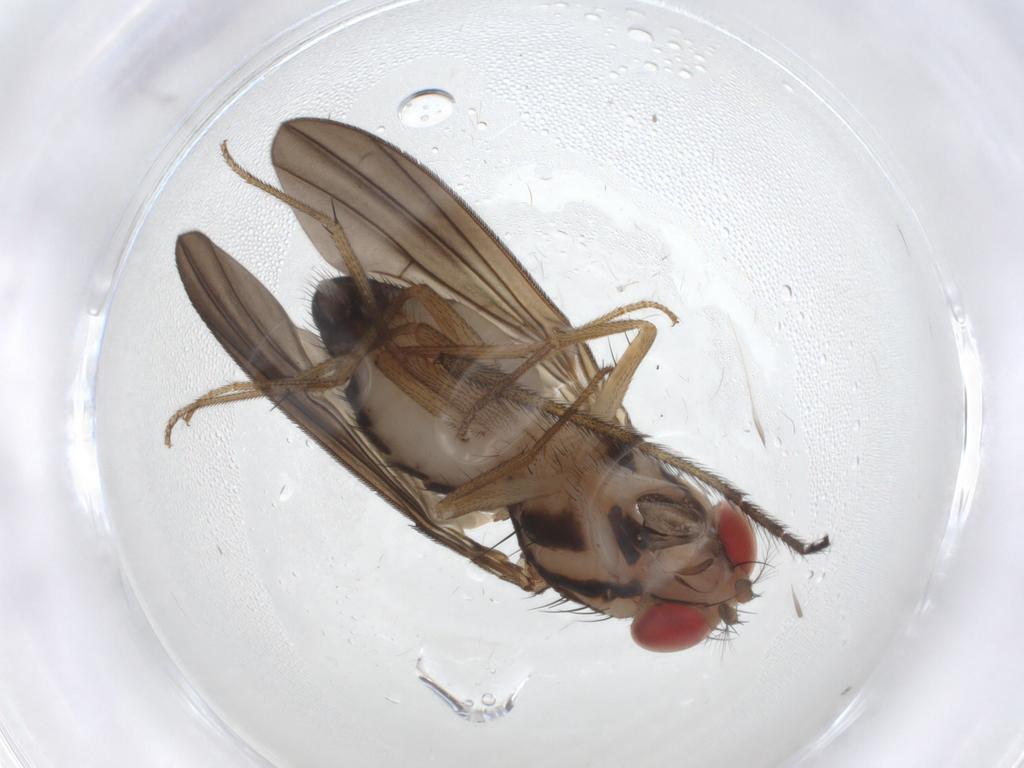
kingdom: Animalia
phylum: Arthropoda
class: Insecta
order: Diptera
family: Drosophilidae
